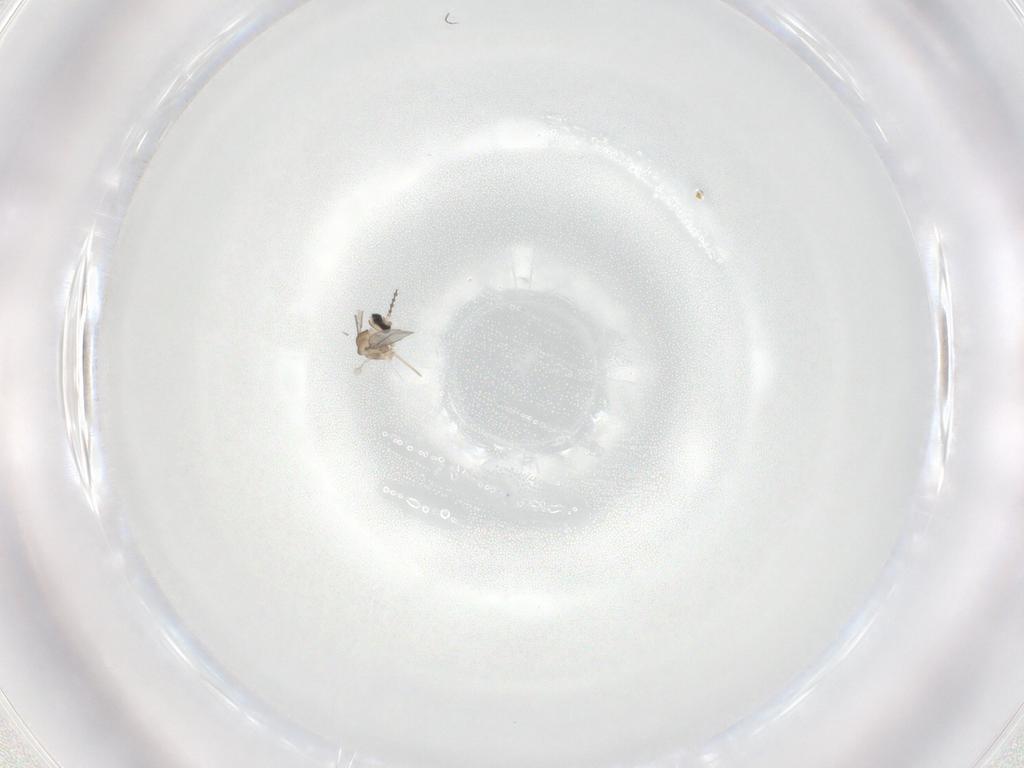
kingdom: Animalia
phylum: Arthropoda
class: Insecta
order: Diptera
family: Cecidomyiidae
